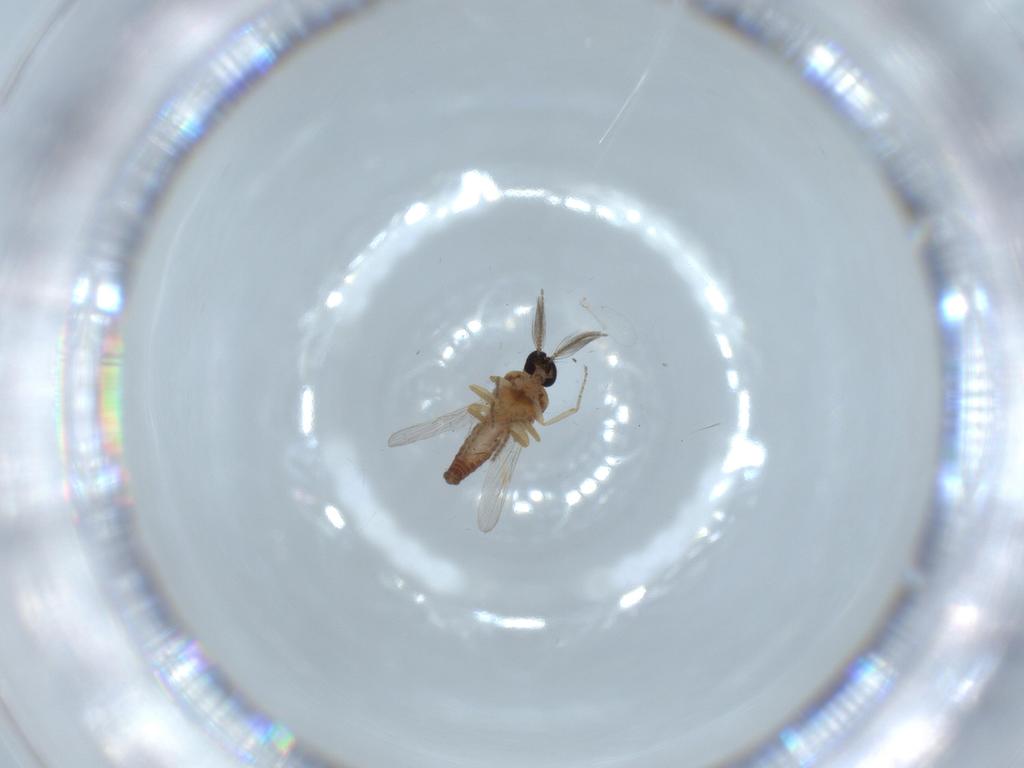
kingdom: Animalia
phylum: Arthropoda
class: Insecta
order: Diptera
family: Ceratopogonidae
